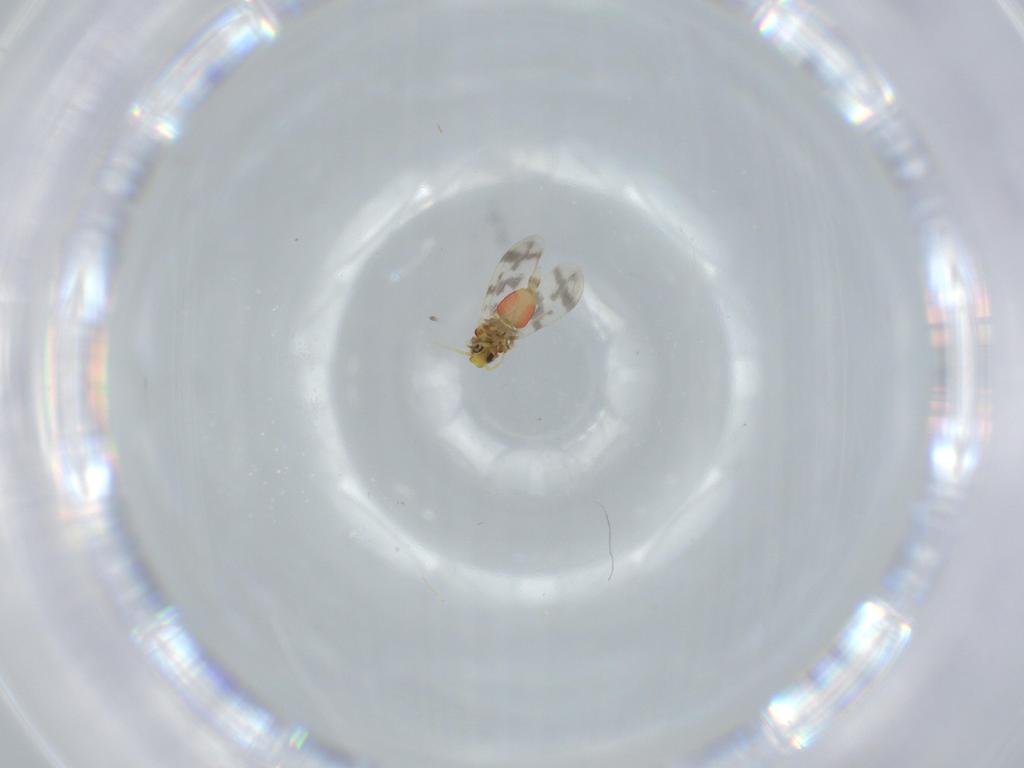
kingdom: Animalia
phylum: Arthropoda
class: Insecta
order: Diptera
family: Cecidomyiidae
